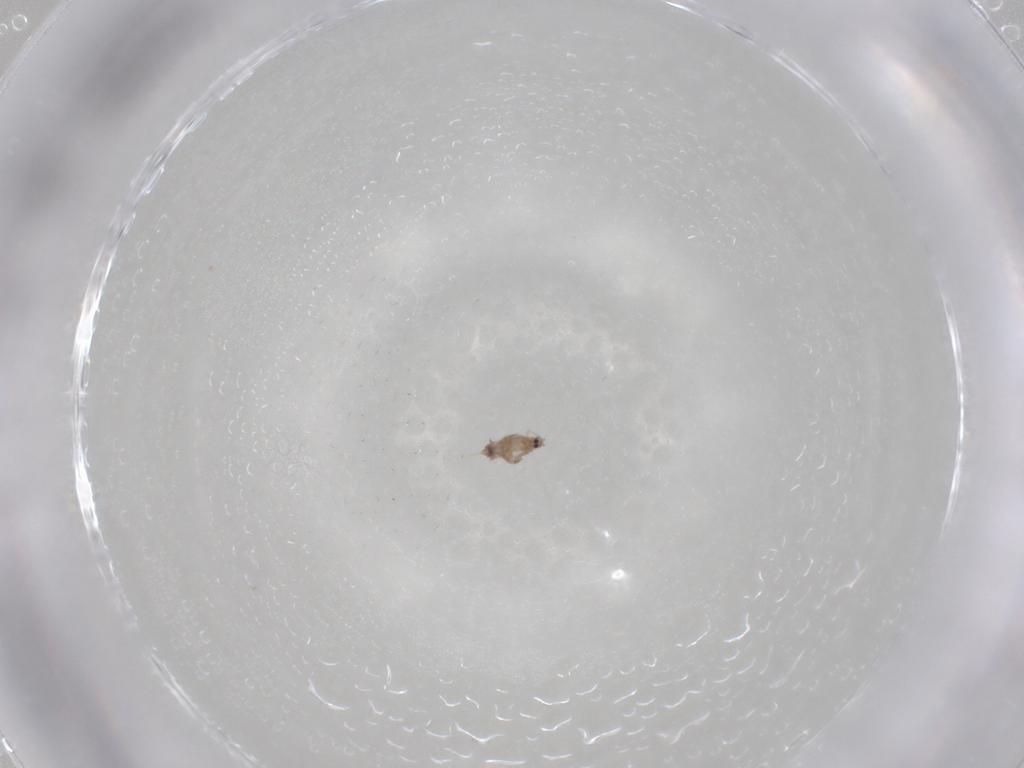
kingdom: Animalia
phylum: Arthropoda
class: Insecta
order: Hemiptera
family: Coccoidea_incertae_sedis
